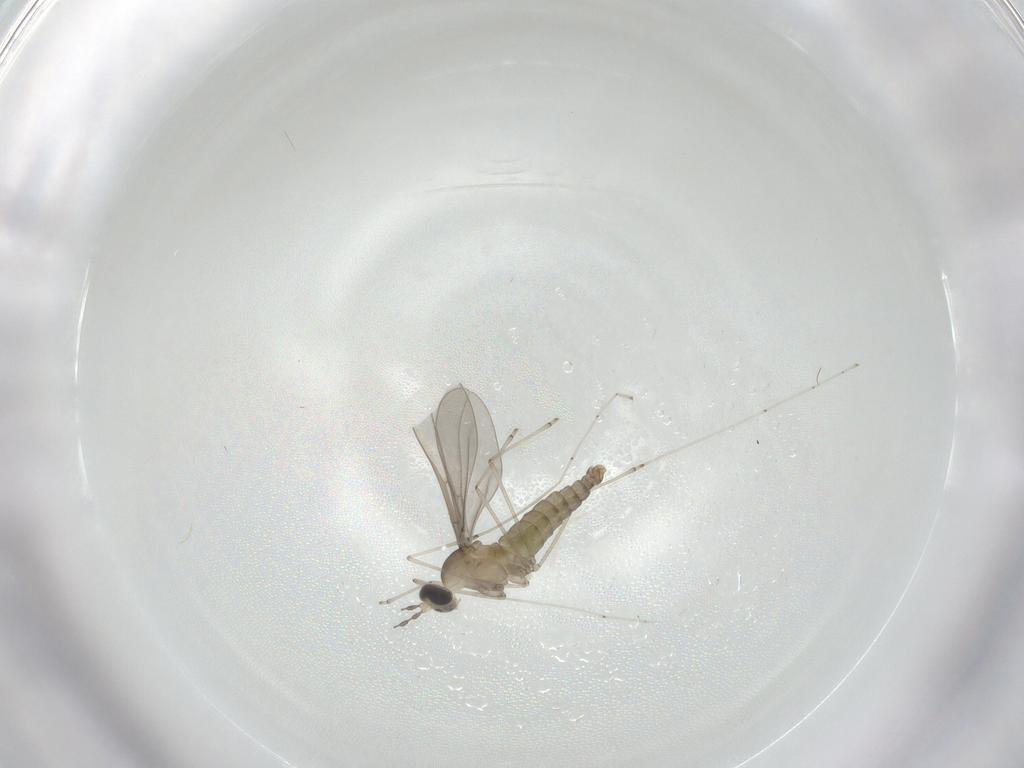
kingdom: Animalia
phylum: Arthropoda
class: Insecta
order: Diptera
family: Cecidomyiidae
